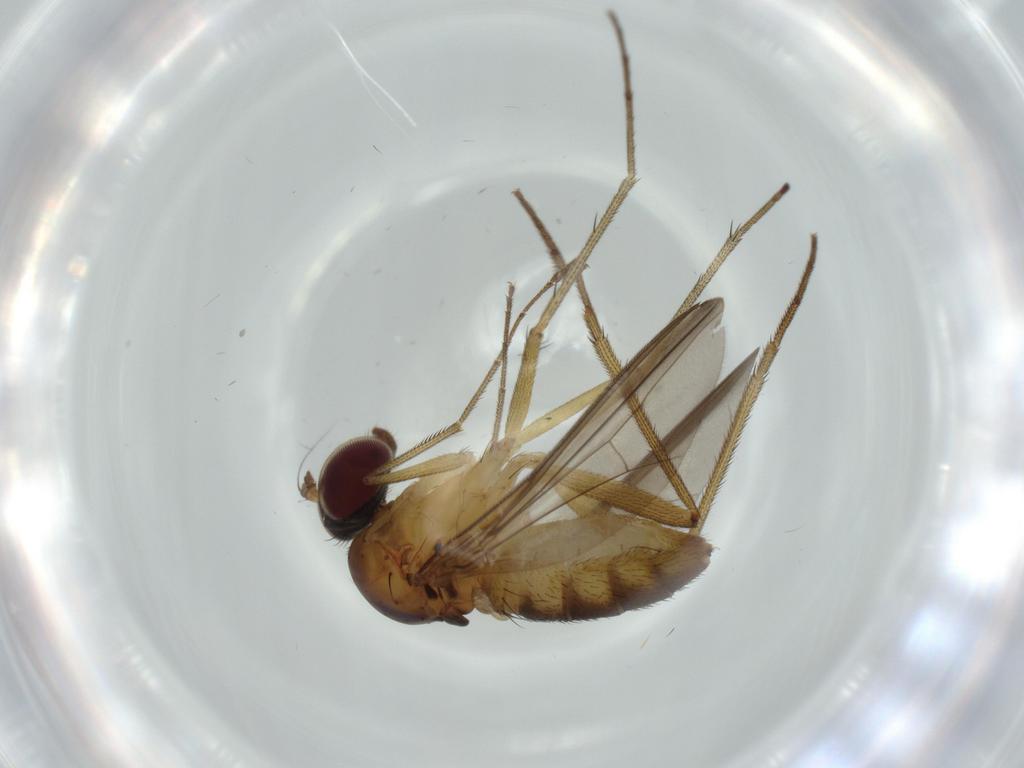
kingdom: Animalia
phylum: Arthropoda
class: Insecta
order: Diptera
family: Dolichopodidae
